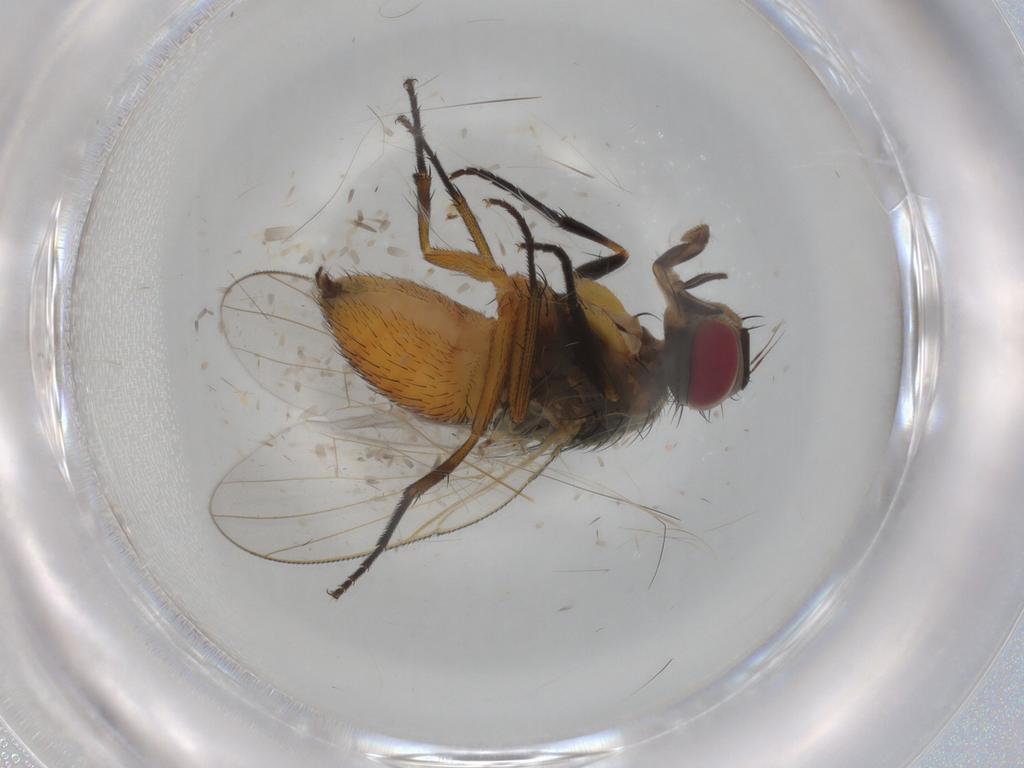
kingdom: Animalia
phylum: Arthropoda
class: Insecta
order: Diptera
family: Muscidae
